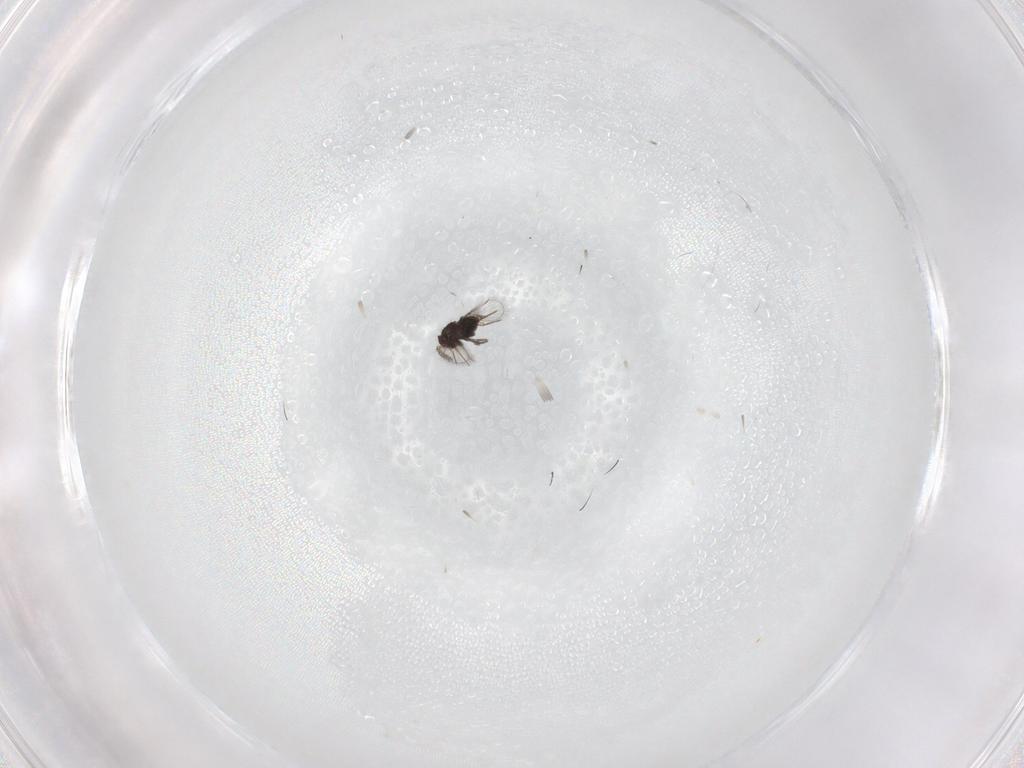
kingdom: Animalia
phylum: Arthropoda
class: Insecta
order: Hymenoptera
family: Trichogrammatidae
